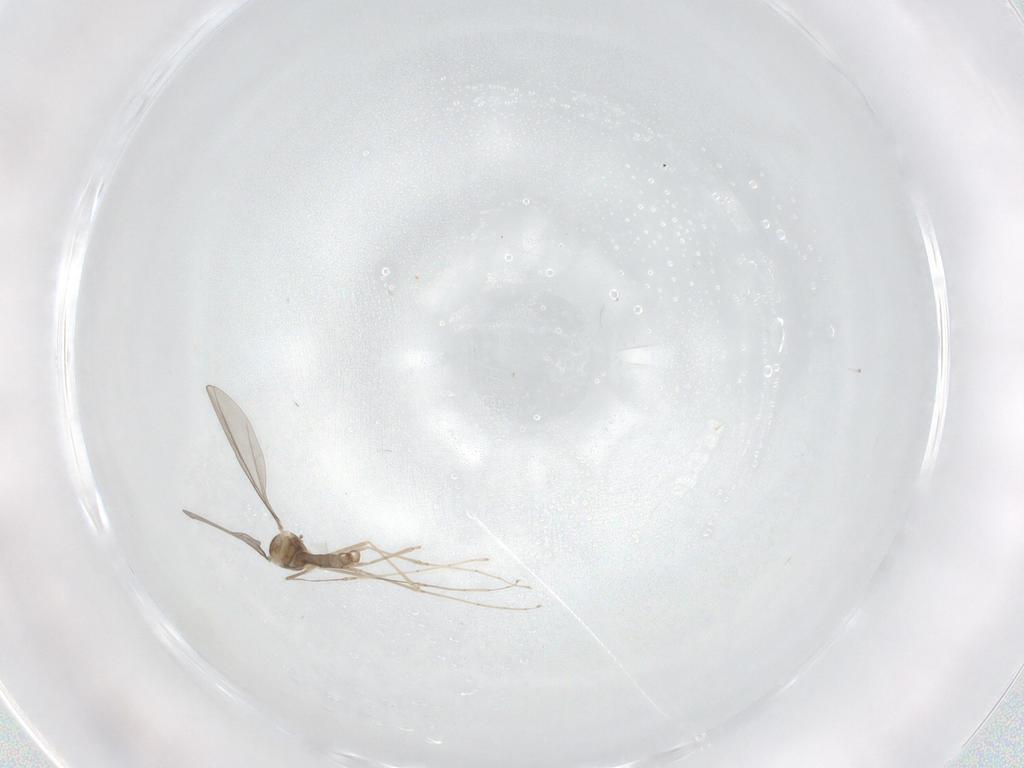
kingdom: Animalia
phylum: Arthropoda
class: Insecta
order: Diptera
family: Cecidomyiidae
